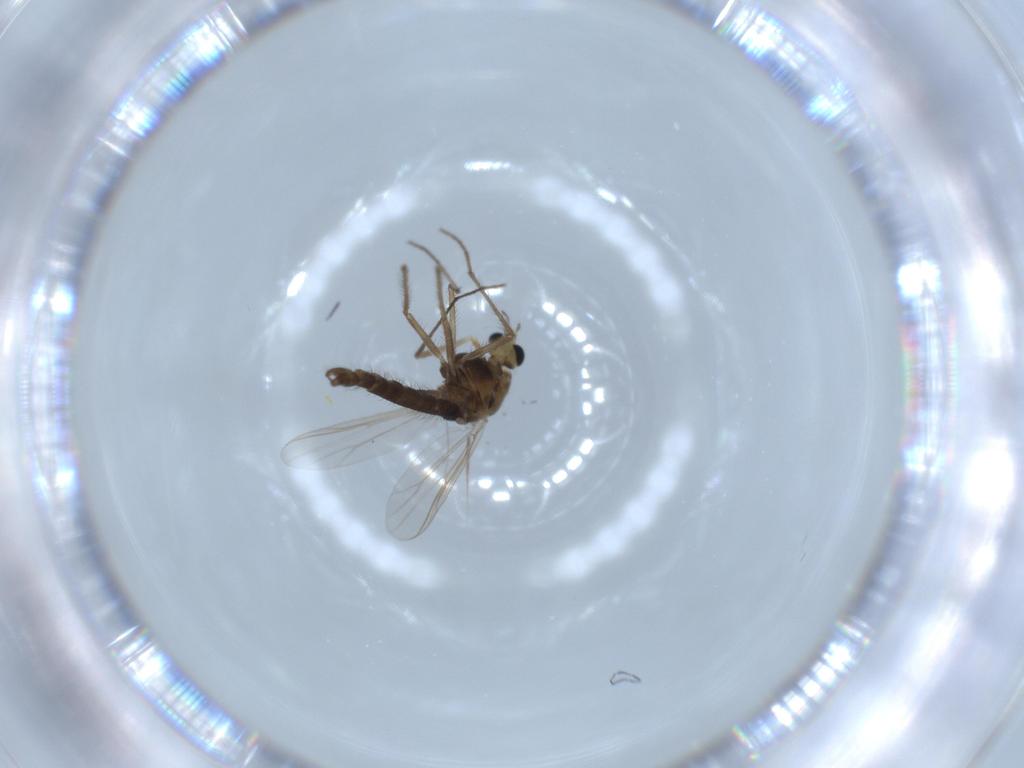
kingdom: Animalia
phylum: Arthropoda
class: Insecta
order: Diptera
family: Chironomidae
